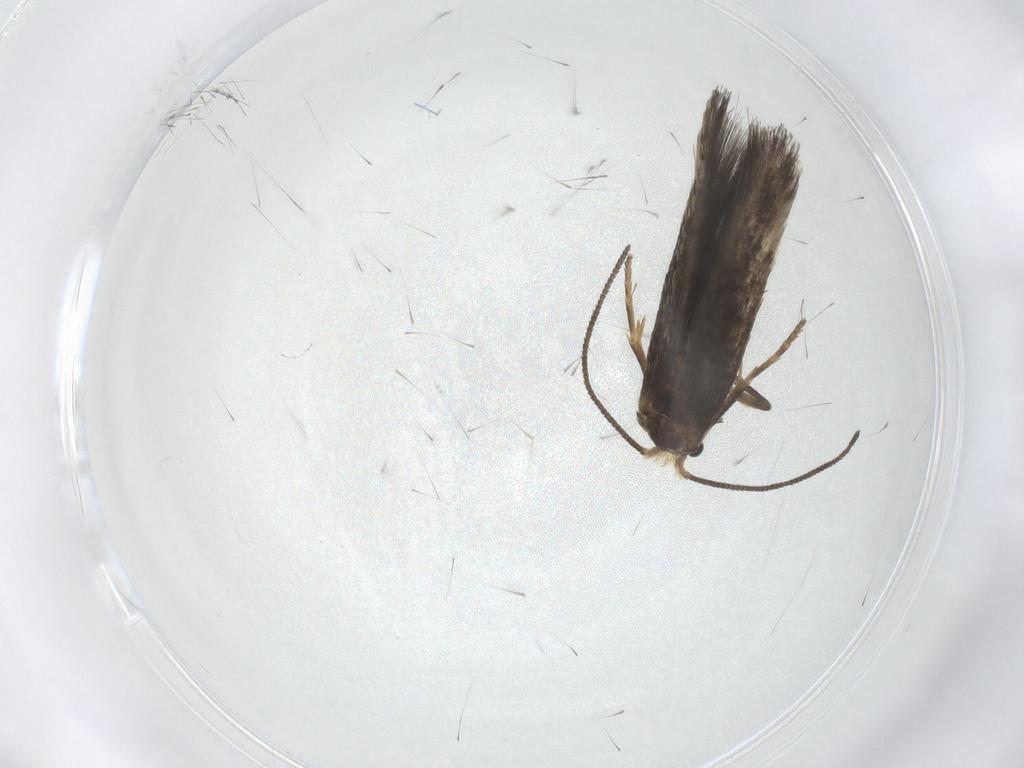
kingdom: Animalia
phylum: Arthropoda
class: Insecta
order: Lepidoptera
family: Nepticulidae
